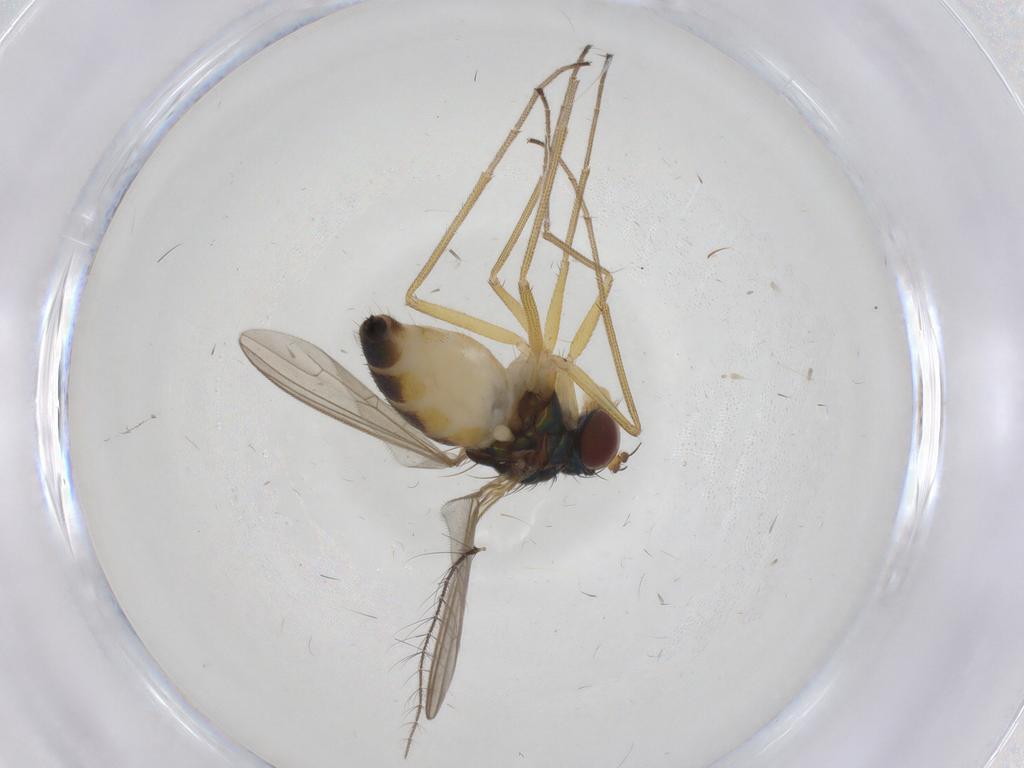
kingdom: Animalia
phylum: Arthropoda
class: Insecta
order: Diptera
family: Dolichopodidae
